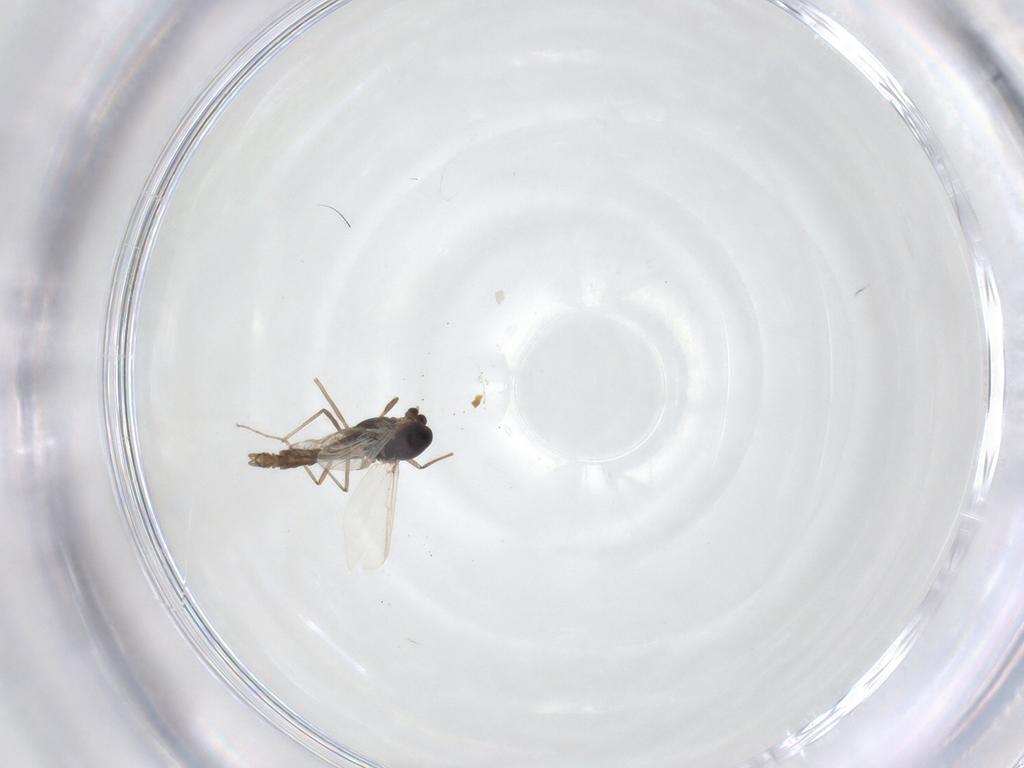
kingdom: Animalia
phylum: Arthropoda
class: Insecta
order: Diptera
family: Chironomidae
